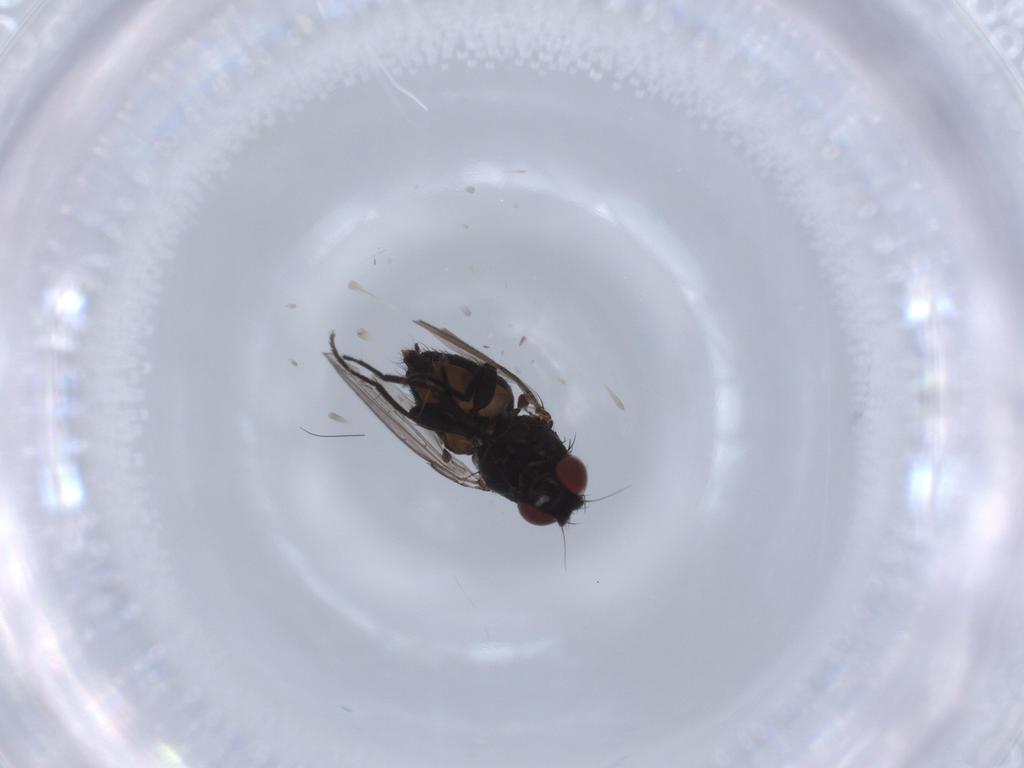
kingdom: Animalia
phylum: Arthropoda
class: Insecta
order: Diptera
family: Milichiidae
